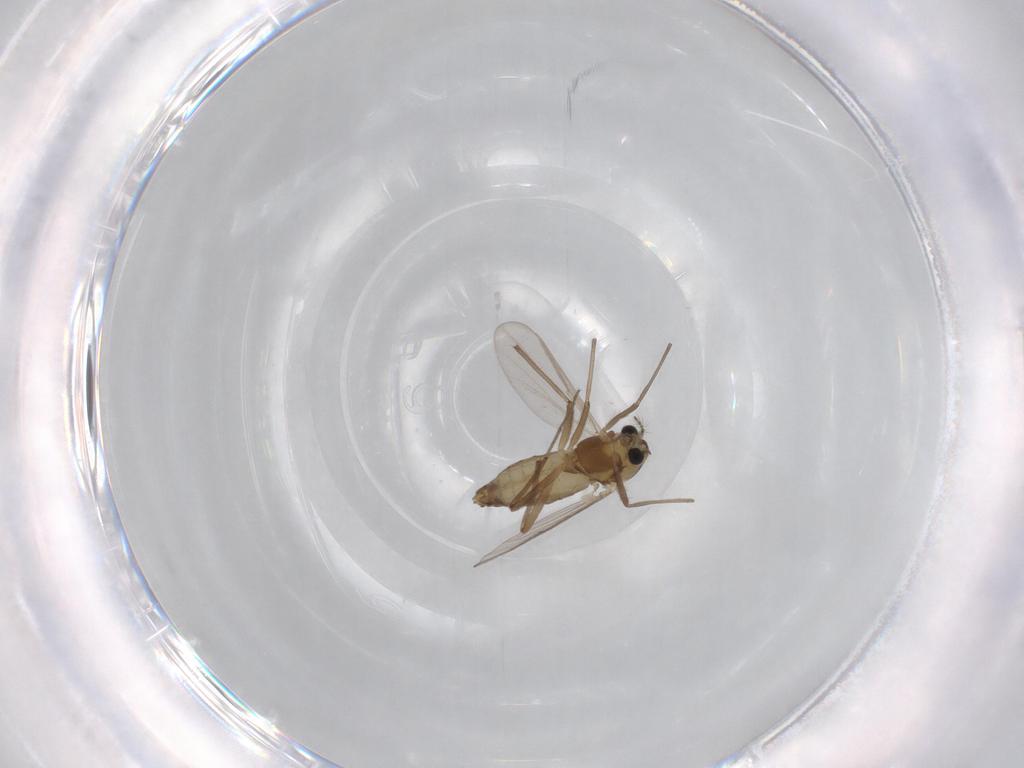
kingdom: Animalia
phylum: Arthropoda
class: Insecta
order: Diptera
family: Chironomidae
